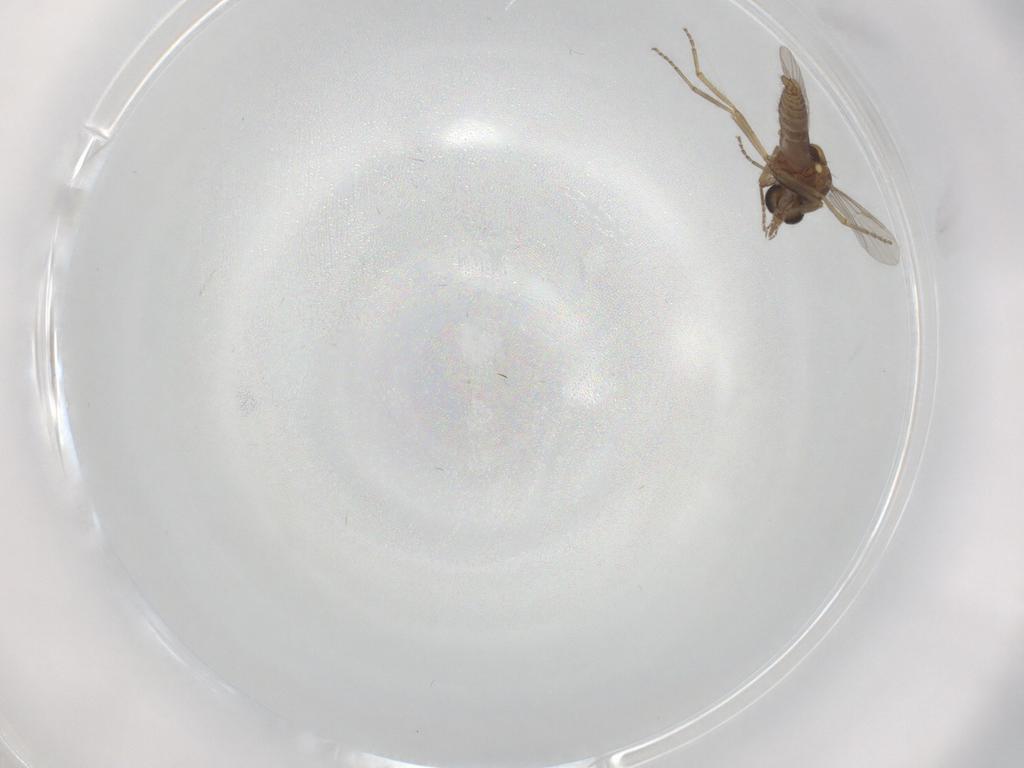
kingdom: Animalia
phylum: Arthropoda
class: Insecta
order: Diptera
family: Ceratopogonidae
